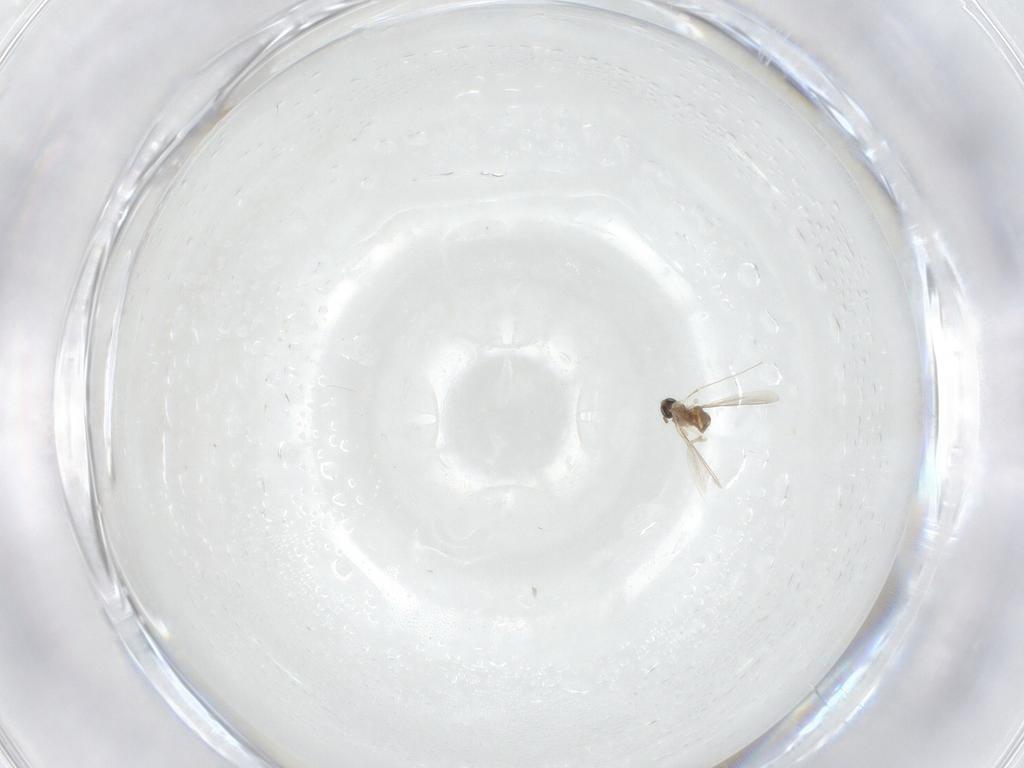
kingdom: Animalia
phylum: Arthropoda
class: Insecta
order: Diptera
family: Cecidomyiidae
